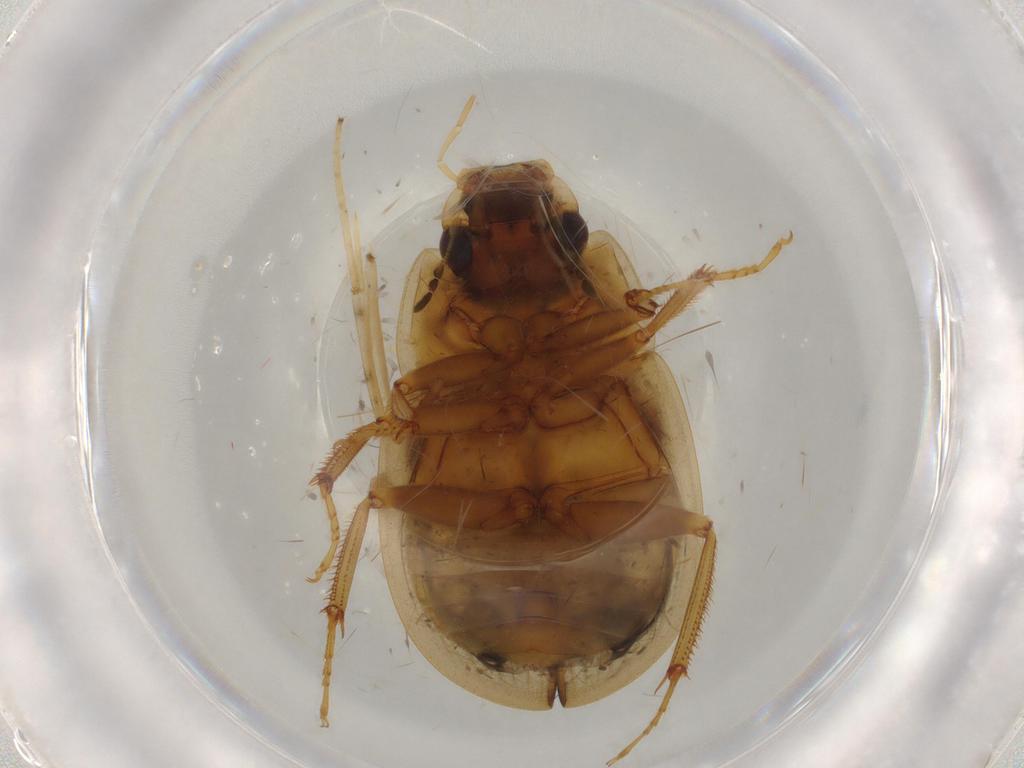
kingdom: Animalia
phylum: Arthropoda
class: Insecta
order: Coleoptera
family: Hydrophilidae
